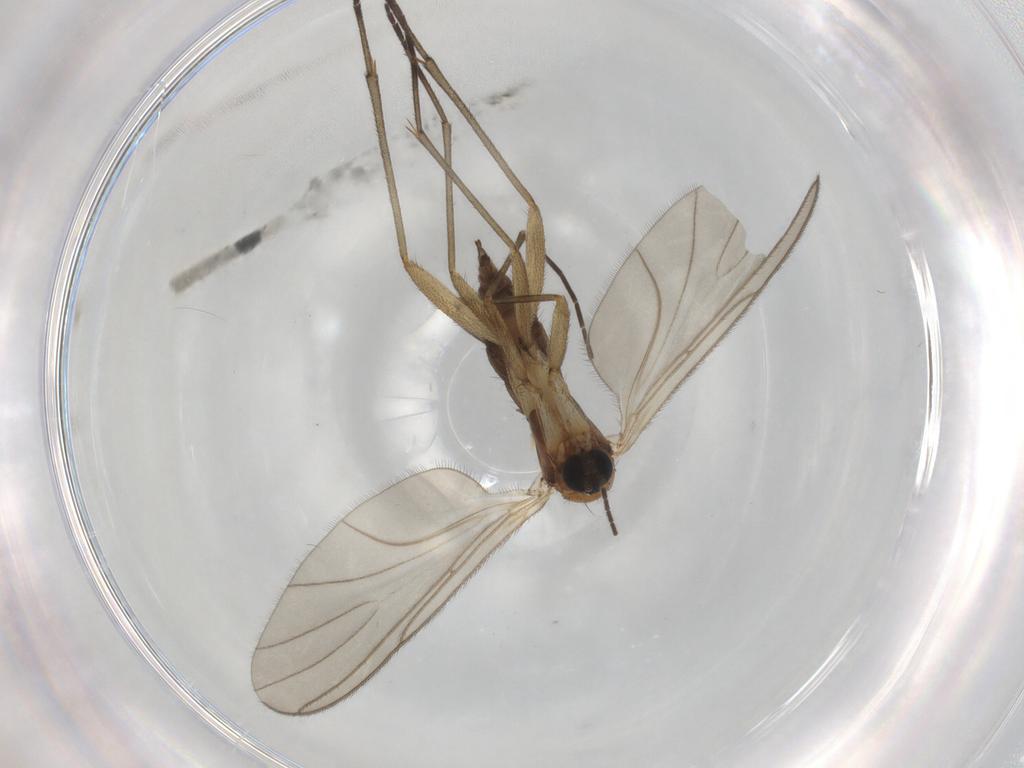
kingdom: Animalia
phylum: Arthropoda
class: Insecta
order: Diptera
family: Sciaridae
